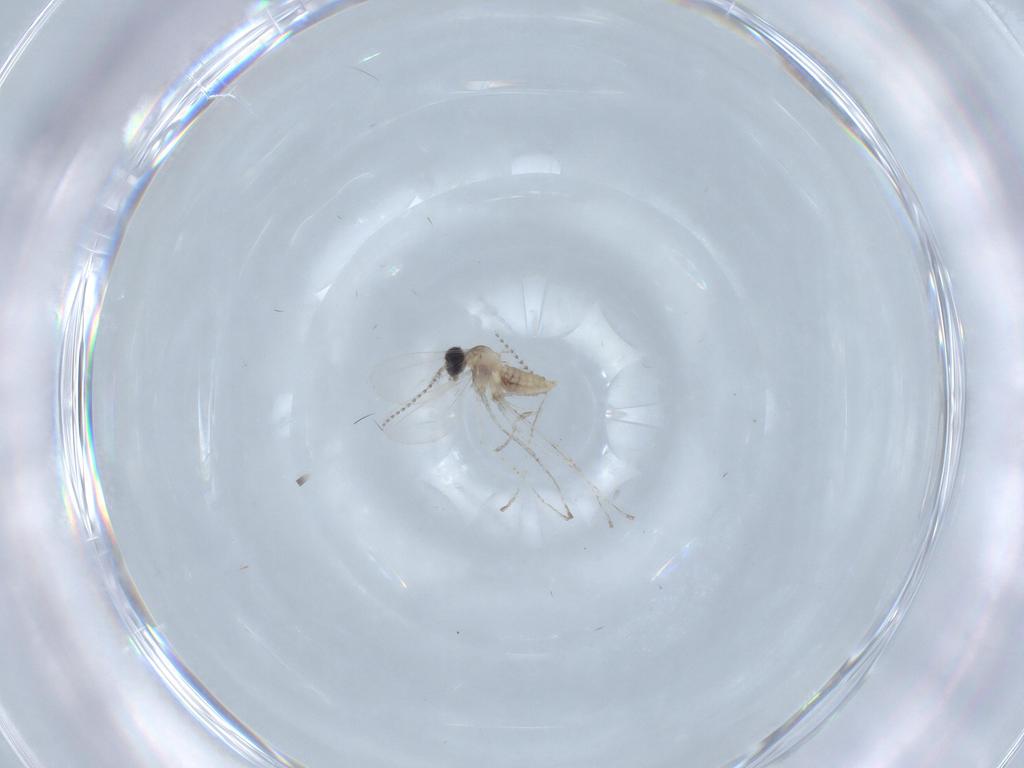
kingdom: Animalia
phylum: Arthropoda
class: Insecta
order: Diptera
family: Cecidomyiidae
